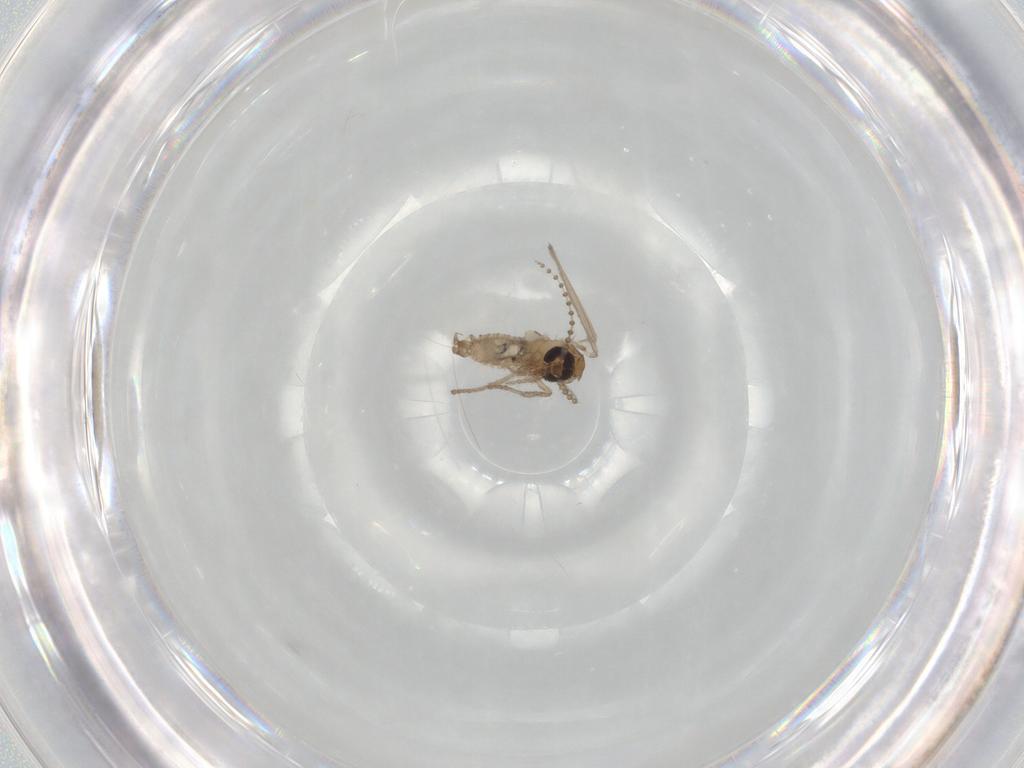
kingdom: Animalia
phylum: Arthropoda
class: Insecta
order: Diptera
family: Psychodidae
